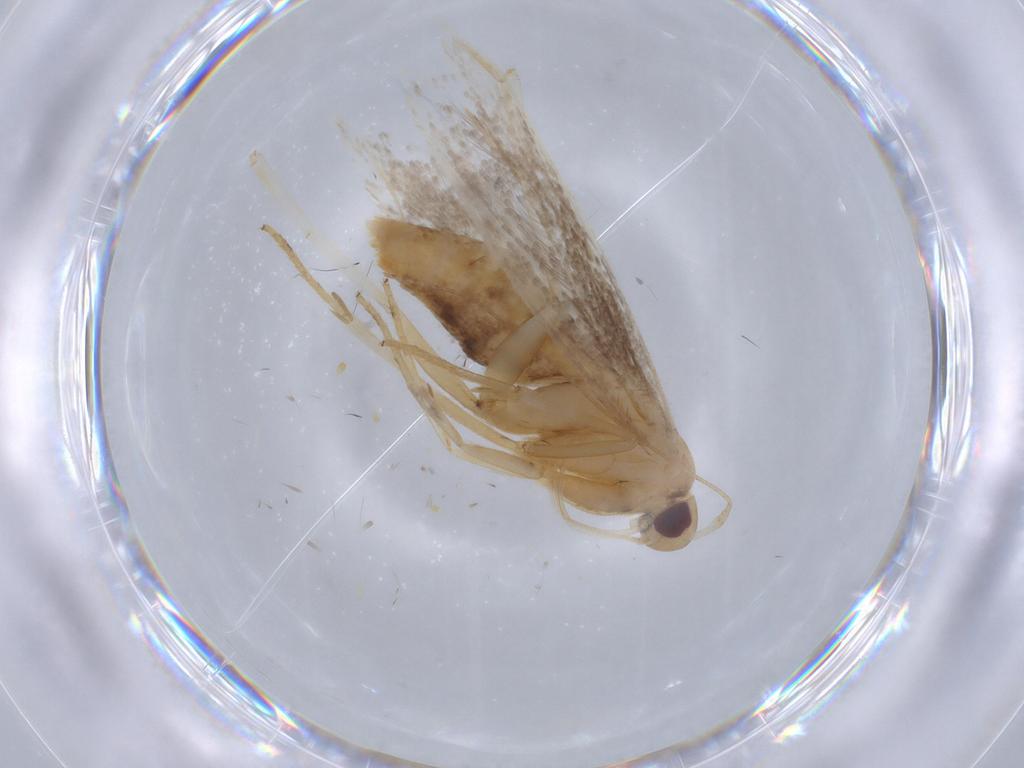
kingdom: Animalia
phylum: Arthropoda
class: Insecta
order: Lepidoptera
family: Cosmopterigidae
